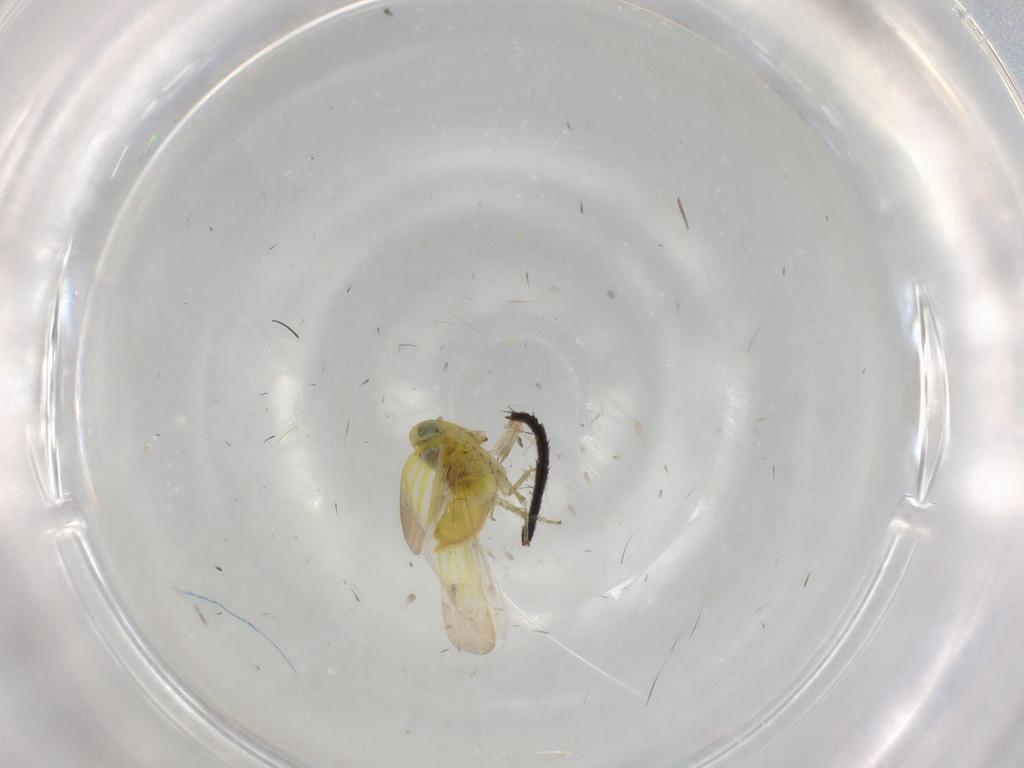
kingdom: Animalia
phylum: Arthropoda
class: Insecta
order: Hemiptera
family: Cicadellidae
